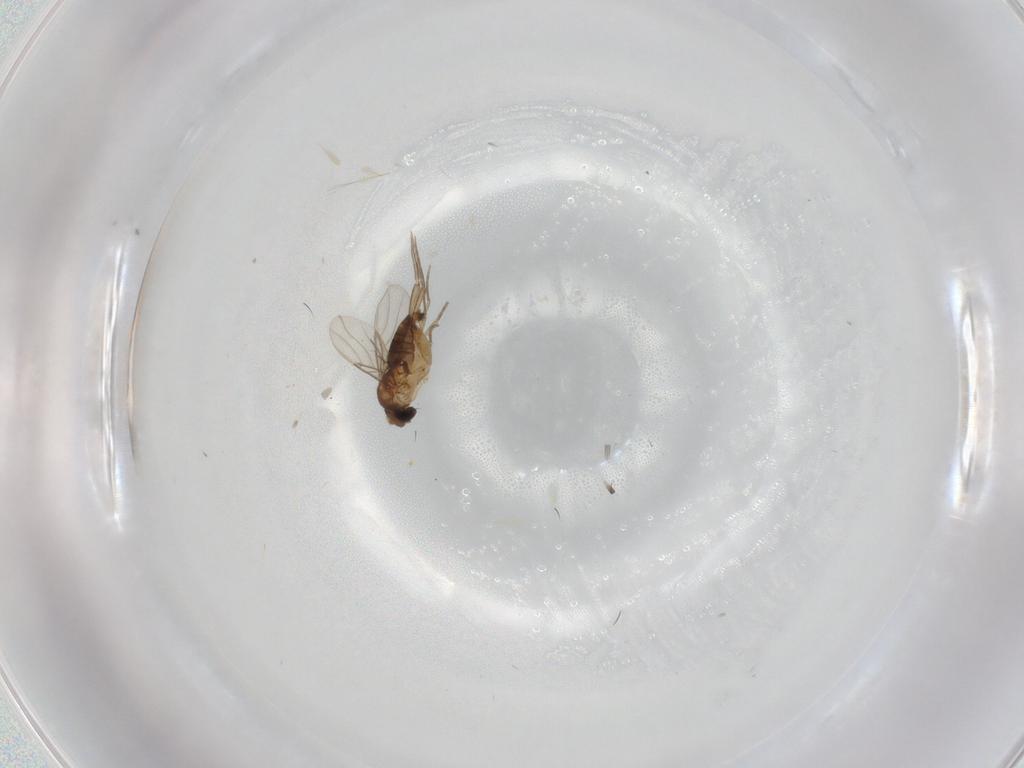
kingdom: Animalia
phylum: Arthropoda
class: Insecta
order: Diptera
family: Phoridae
